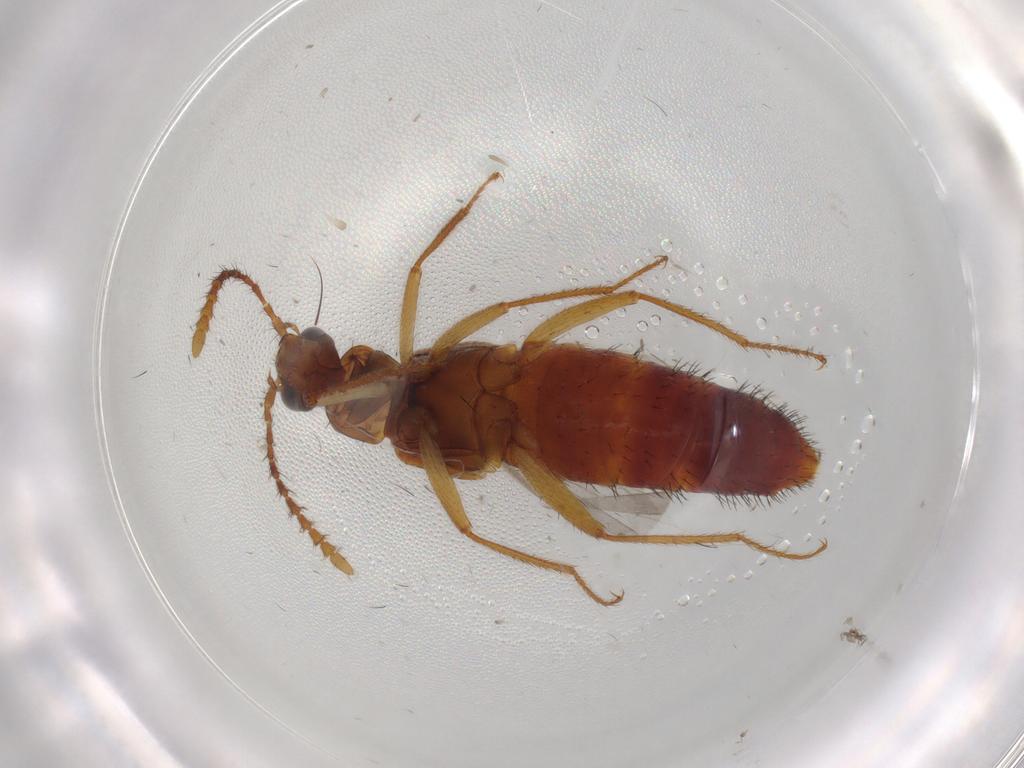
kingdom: Animalia
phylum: Arthropoda
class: Insecta
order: Coleoptera
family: Staphylinidae
